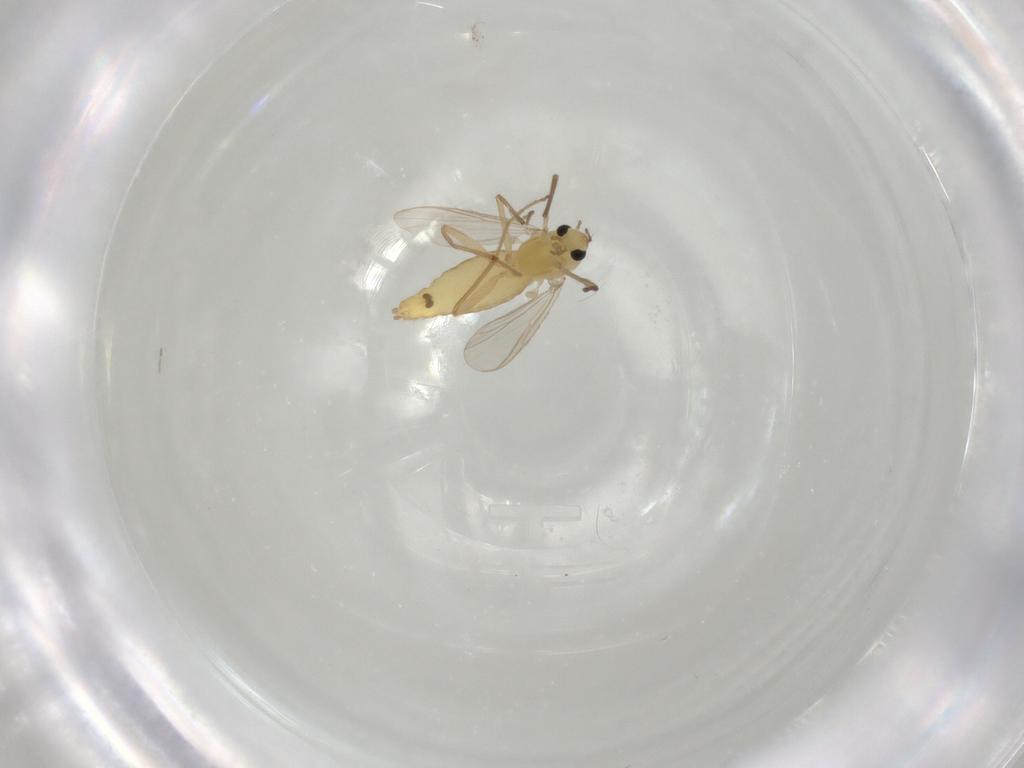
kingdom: Animalia
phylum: Arthropoda
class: Insecta
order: Diptera
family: Chironomidae
